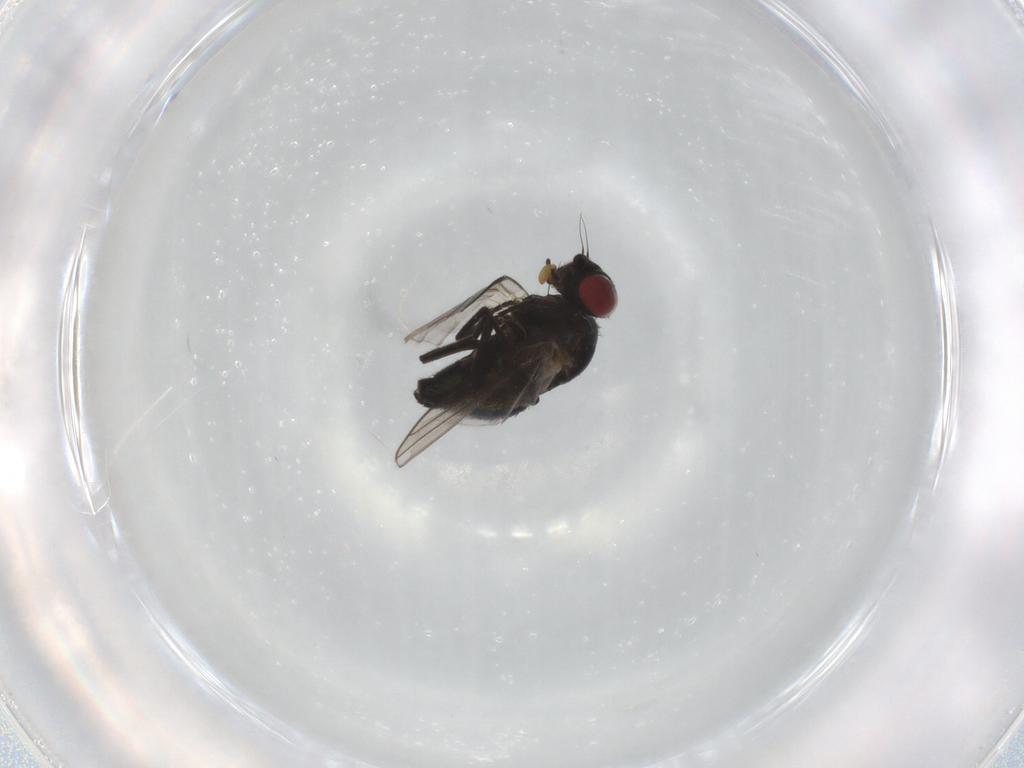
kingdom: Animalia
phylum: Arthropoda
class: Insecta
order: Diptera
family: Agromyzidae
